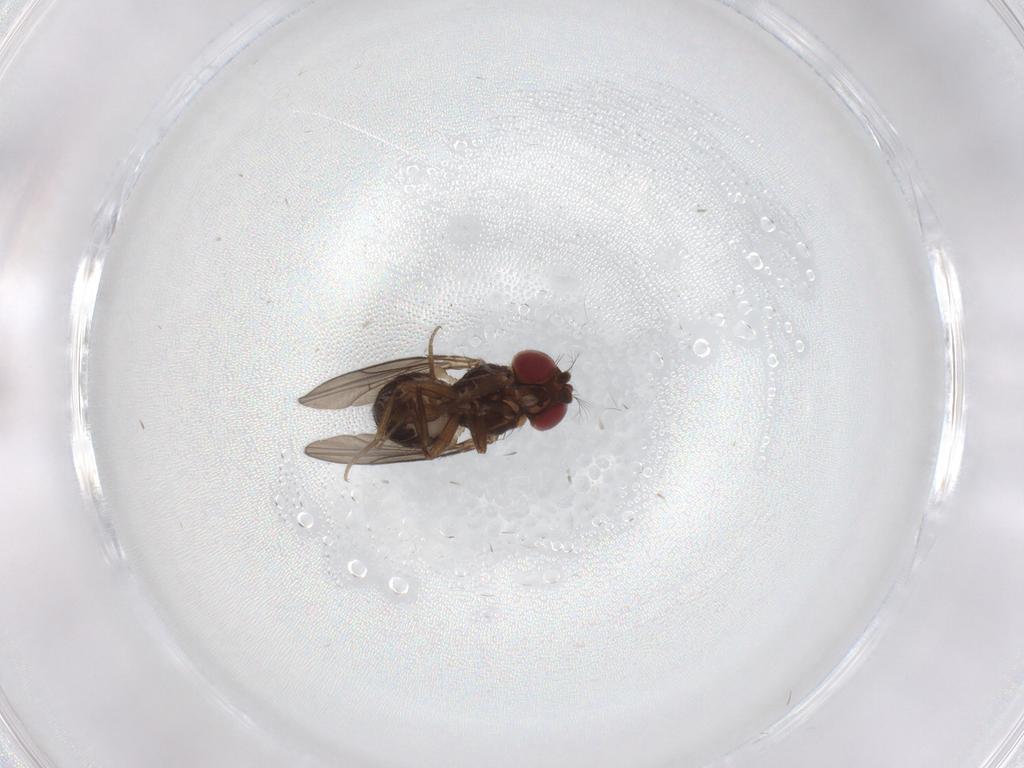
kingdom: Animalia
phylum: Arthropoda
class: Insecta
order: Diptera
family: Drosophilidae
